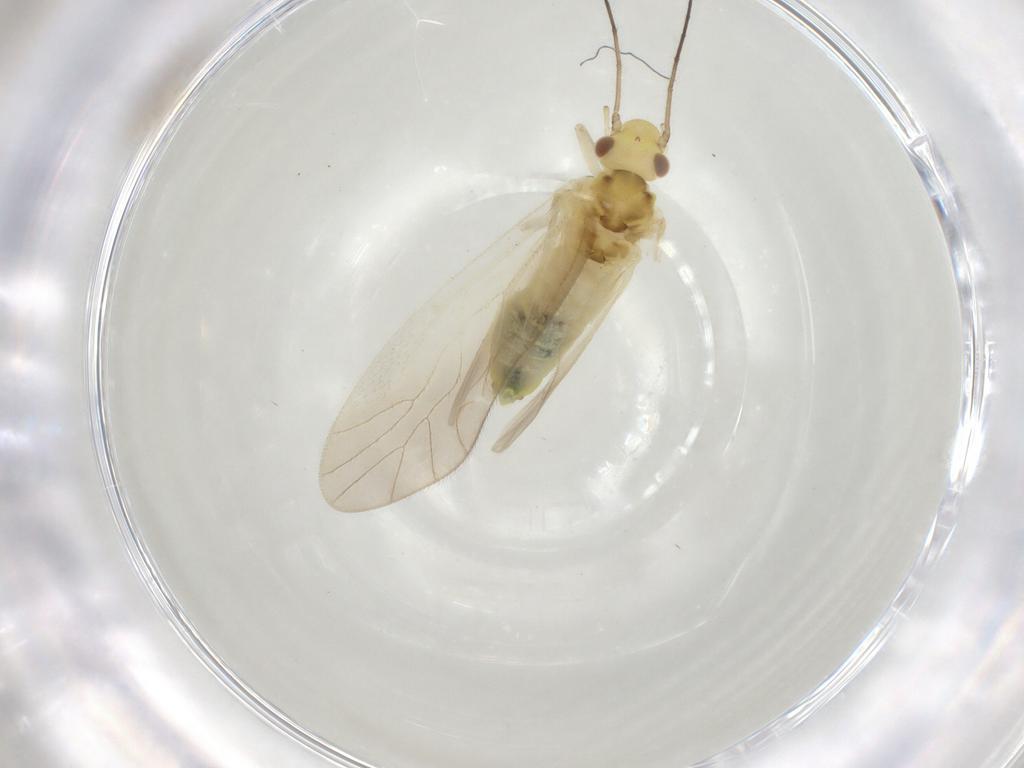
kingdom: Animalia
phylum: Arthropoda
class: Insecta
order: Psocodea
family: Caeciliusidae
